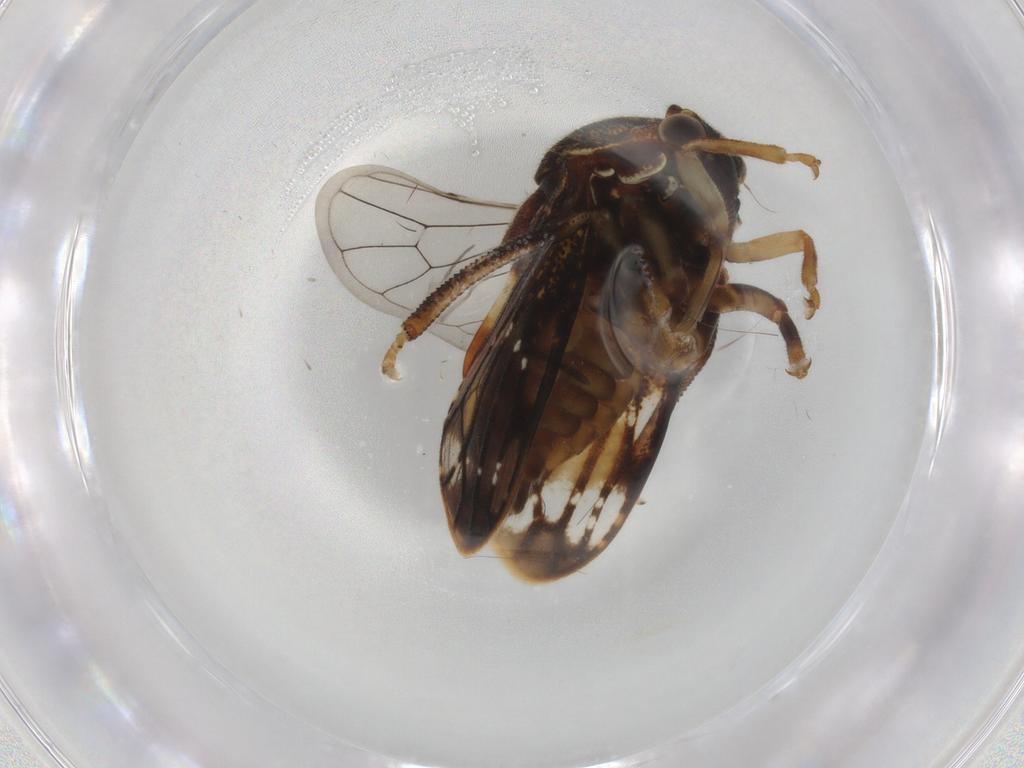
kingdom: Animalia
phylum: Arthropoda
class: Insecta
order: Hemiptera
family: Membracidae
